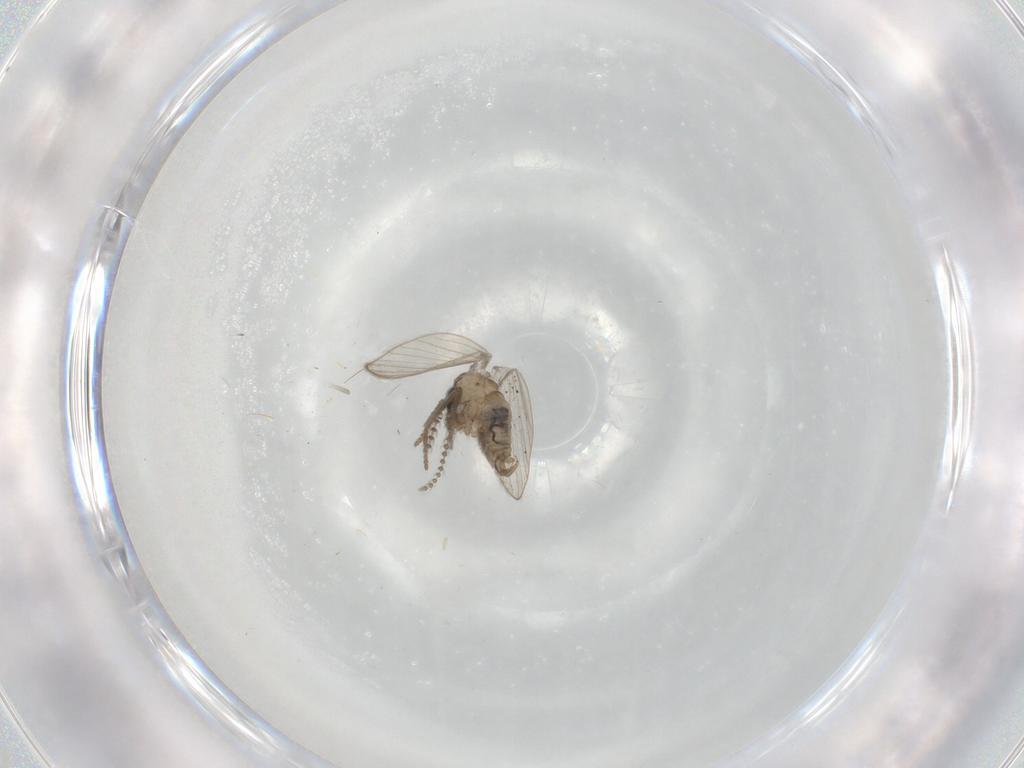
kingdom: Animalia
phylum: Arthropoda
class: Insecta
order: Diptera
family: Psychodidae
